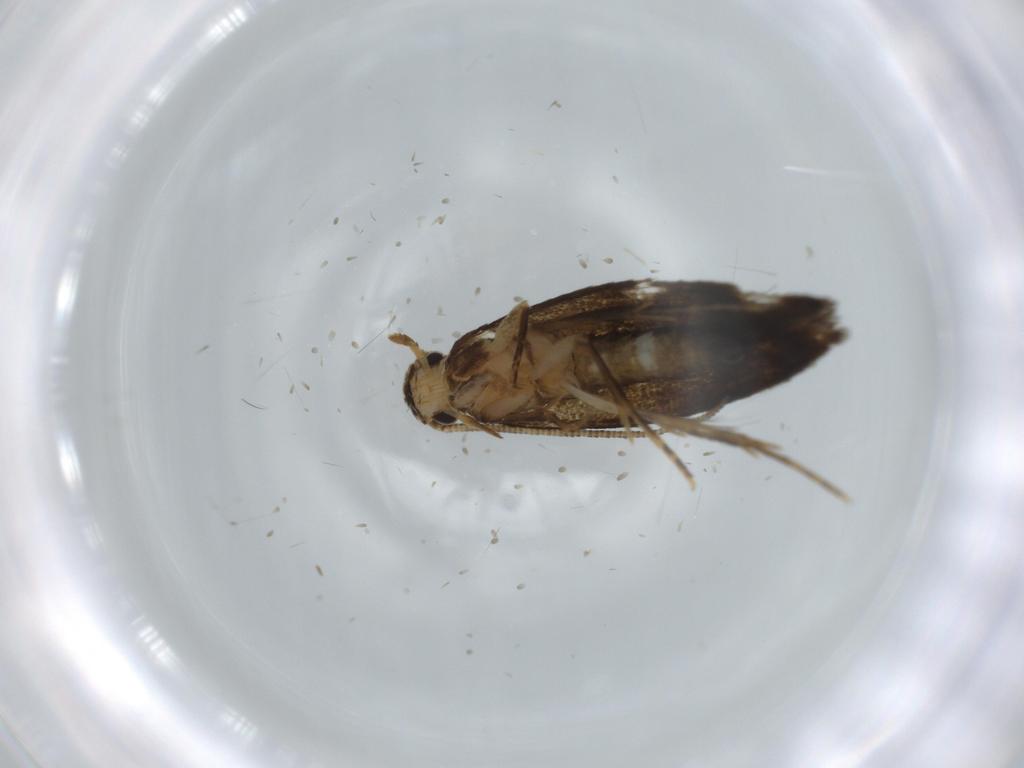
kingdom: Animalia
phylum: Arthropoda
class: Insecta
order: Lepidoptera
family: Tineidae
